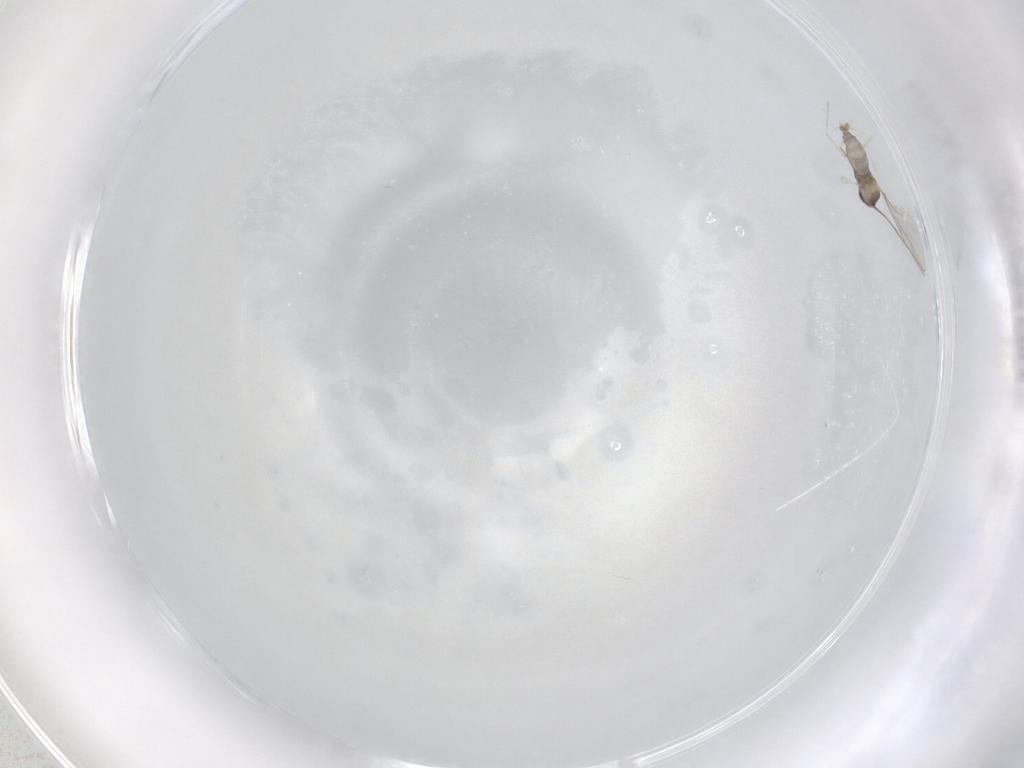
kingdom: Animalia
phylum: Arthropoda
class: Insecta
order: Diptera
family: Cecidomyiidae
